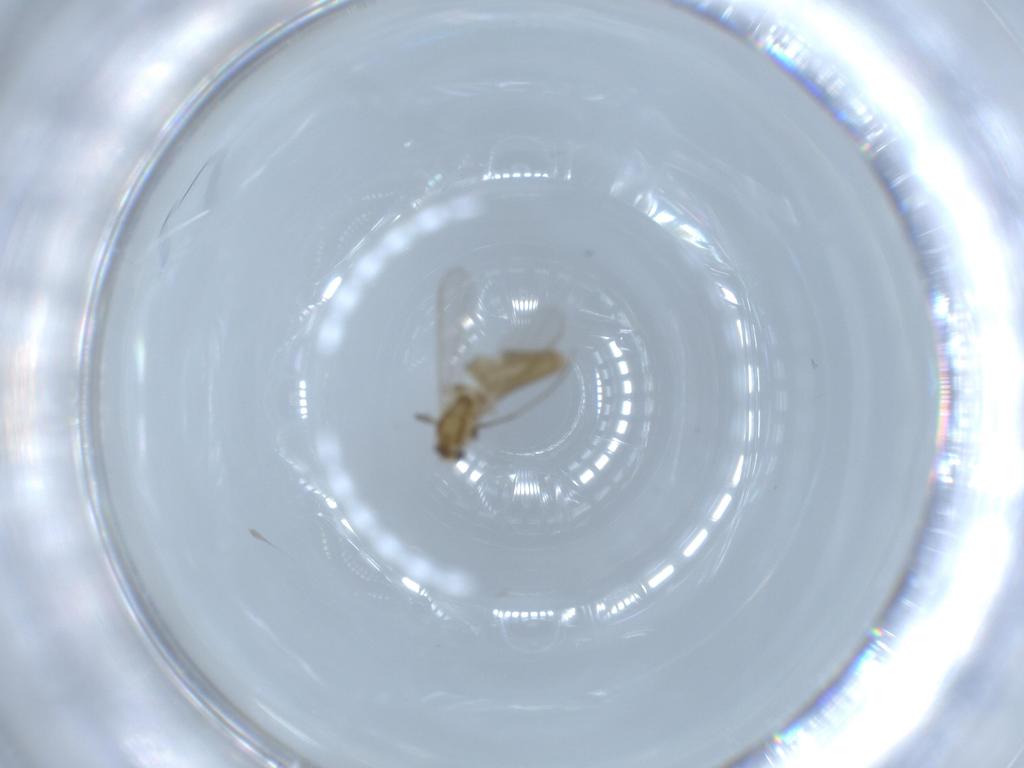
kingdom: Animalia
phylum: Arthropoda
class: Insecta
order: Diptera
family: Chironomidae
